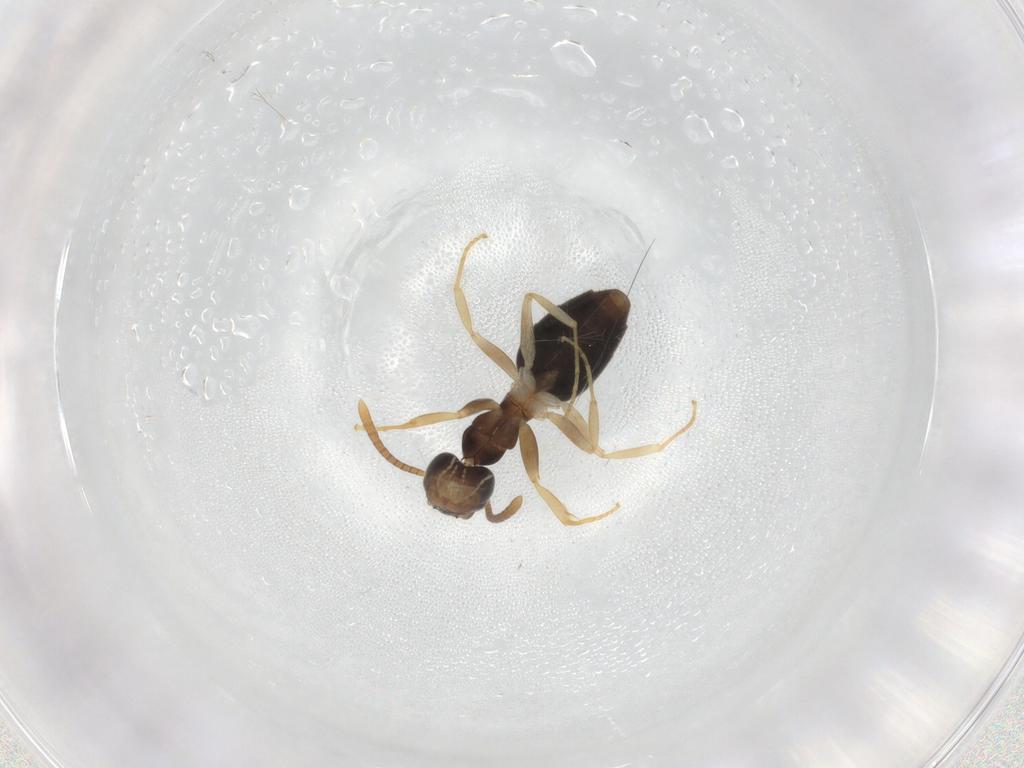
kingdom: Animalia
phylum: Arthropoda
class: Insecta
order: Hymenoptera
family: Formicidae
